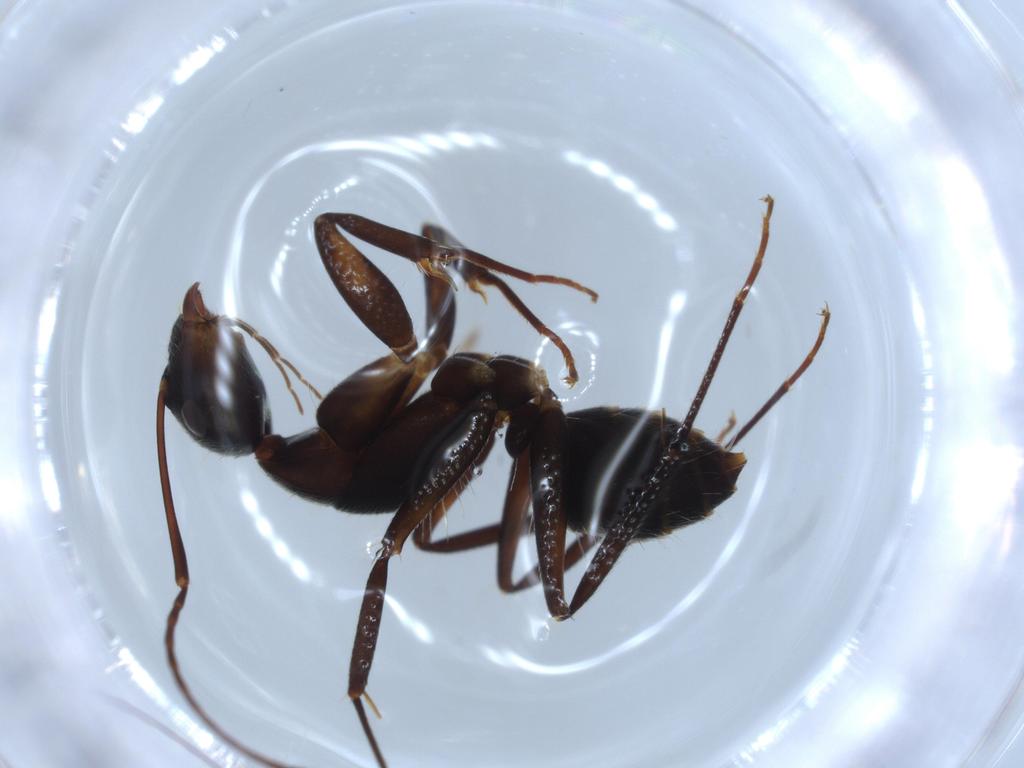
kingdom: Animalia
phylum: Arthropoda
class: Insecta
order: Hymenoptera
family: Formicidae
